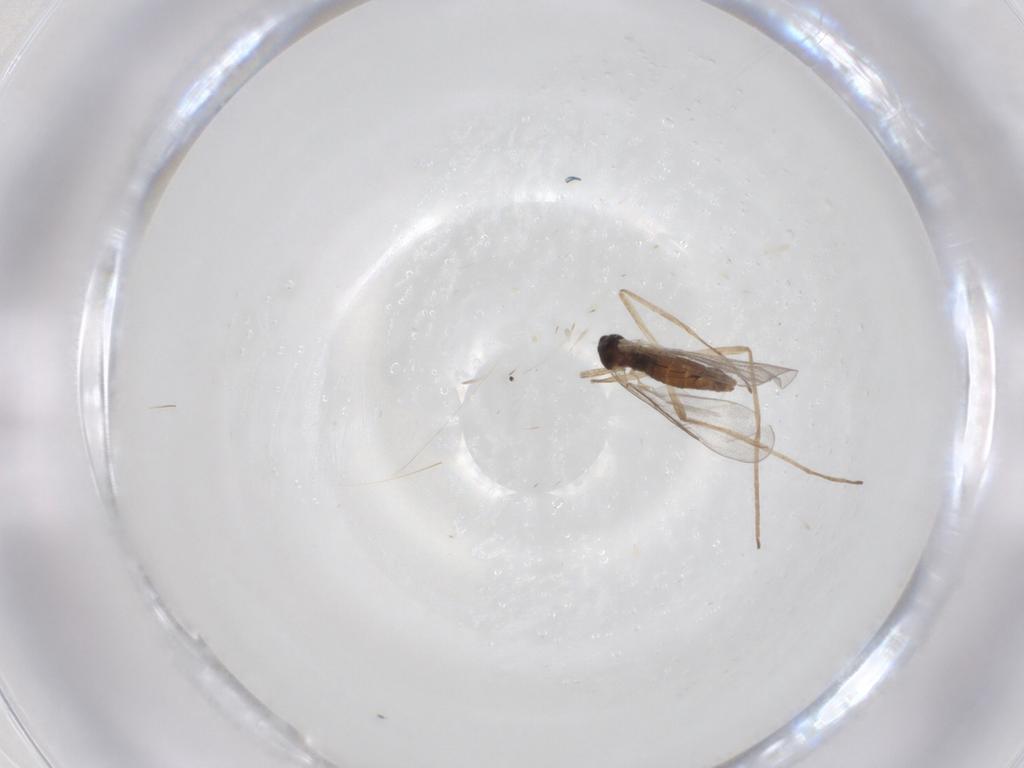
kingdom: Animalia
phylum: Arthropoda
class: Insecta
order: Diptera
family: Cecidomyiidae
